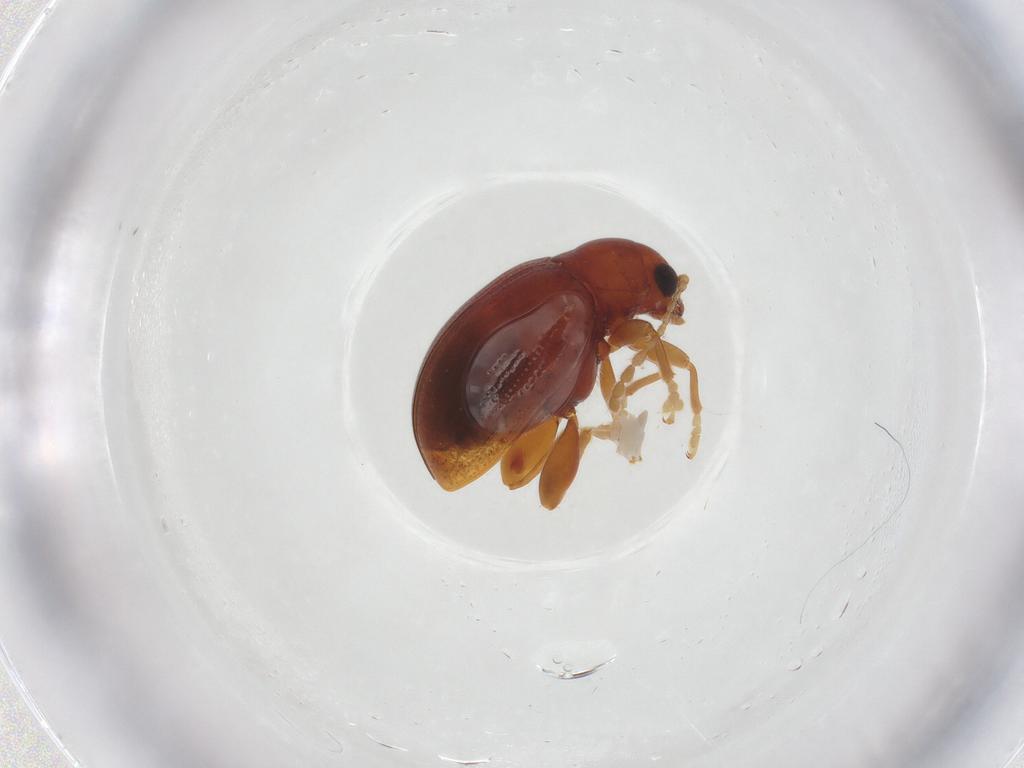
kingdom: Animalia
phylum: Arthropoda
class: Insecta
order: Coleoptera
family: Chrysomelidae
